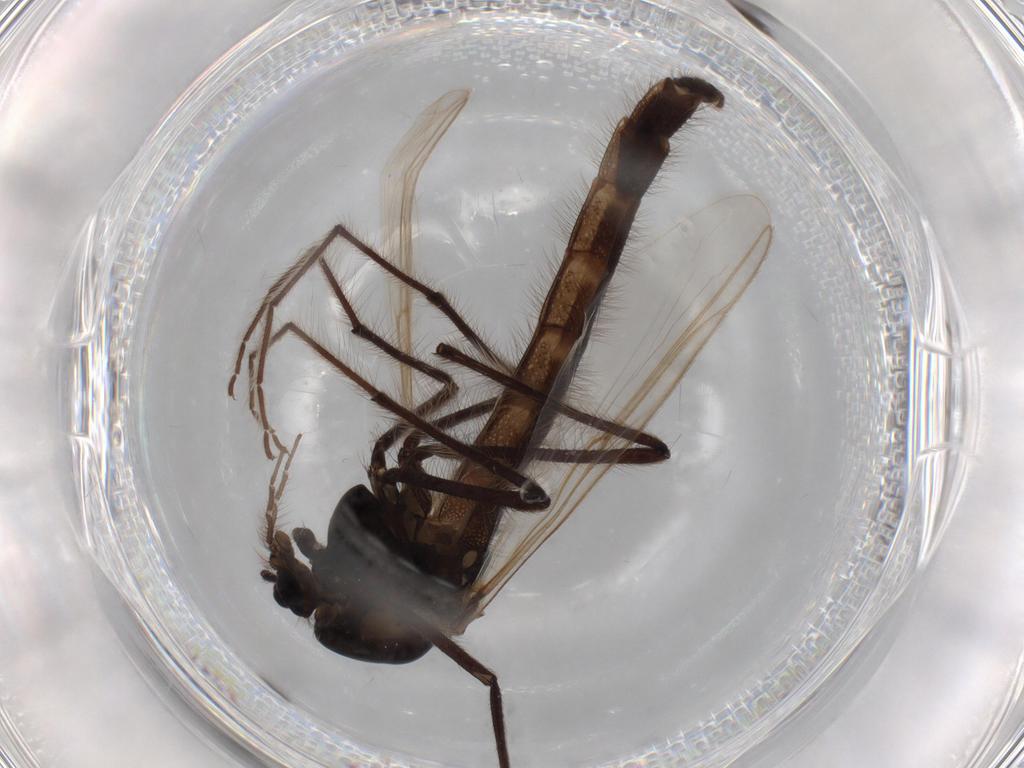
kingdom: Animalia
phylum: Arthropoda
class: Insecta
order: Diptera
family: Chironomidae
